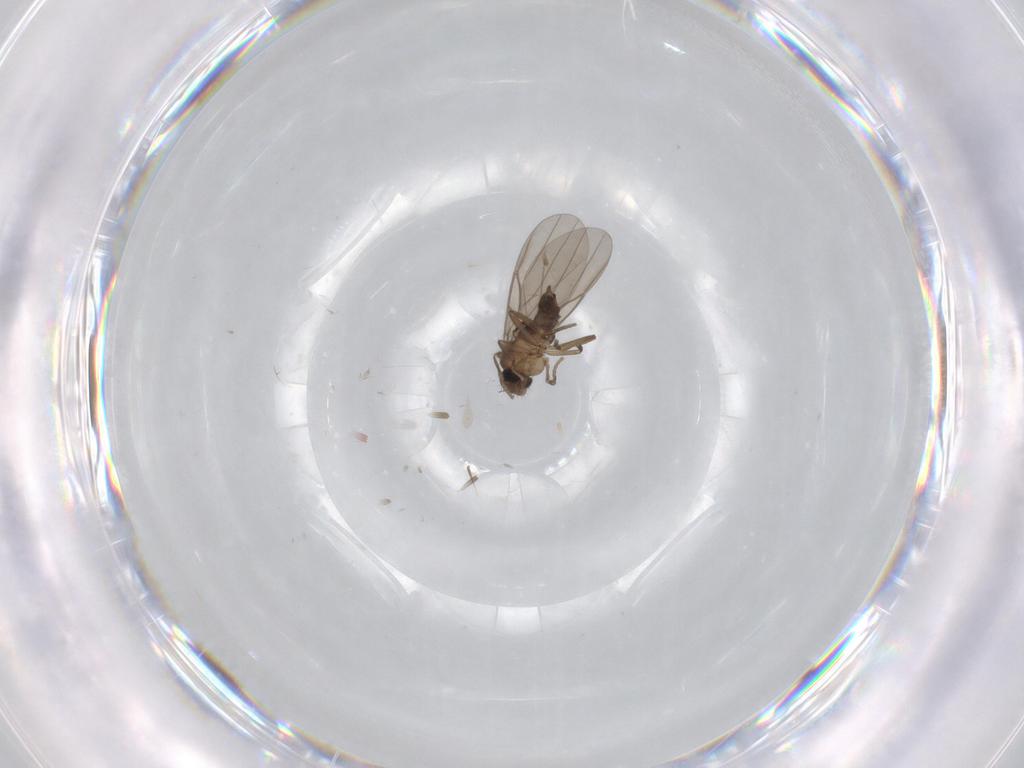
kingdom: Animalia
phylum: Arthropoda
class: Insecta
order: Diptera
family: Cecidomyiidae
